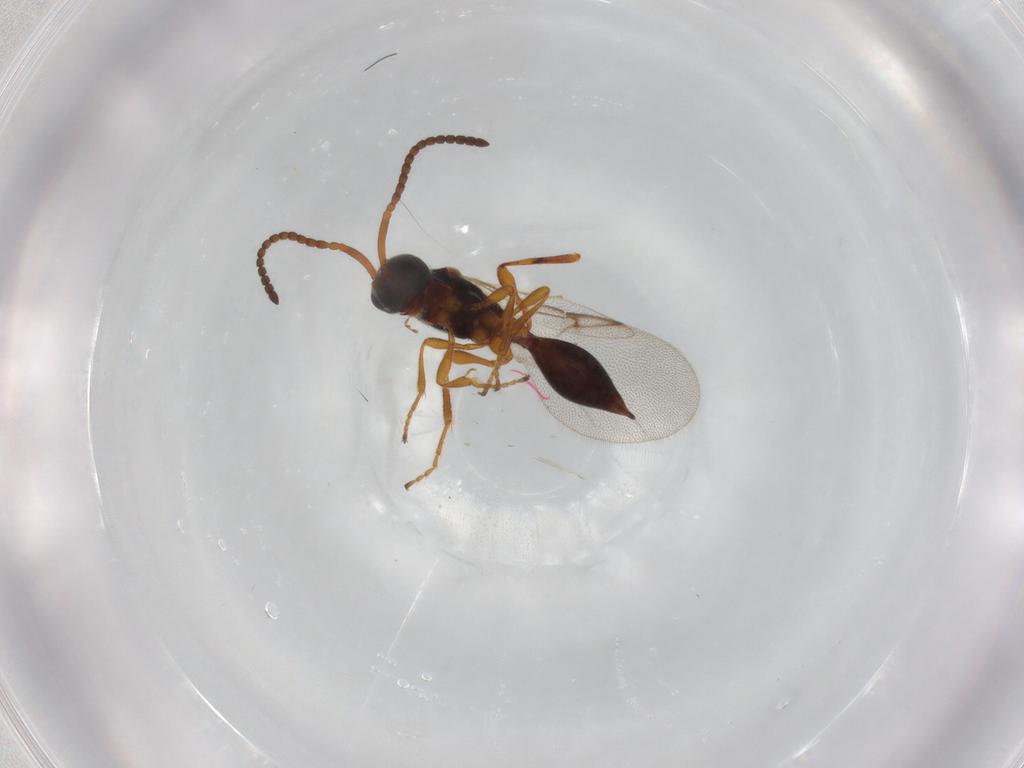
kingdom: Animalia
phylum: Arthropoda
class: Insecta
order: Hymenoptera
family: Diapriidae
